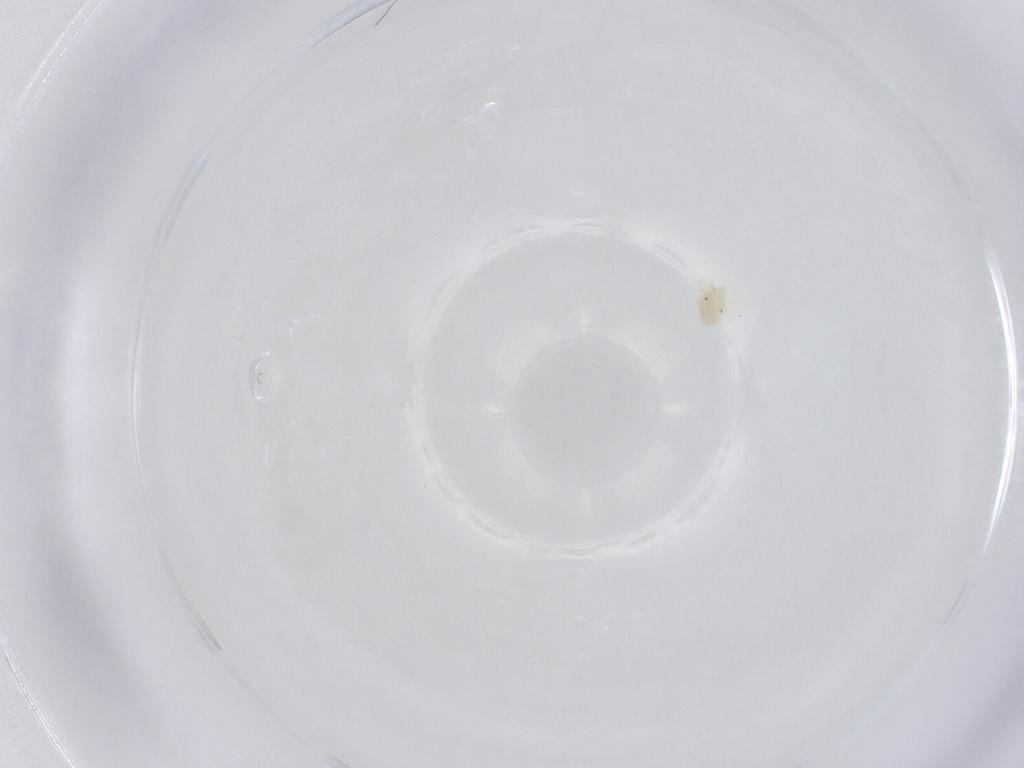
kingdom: Animalia
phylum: Arthropoda
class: Arachnida
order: Trombidiformes
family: Anystidae
